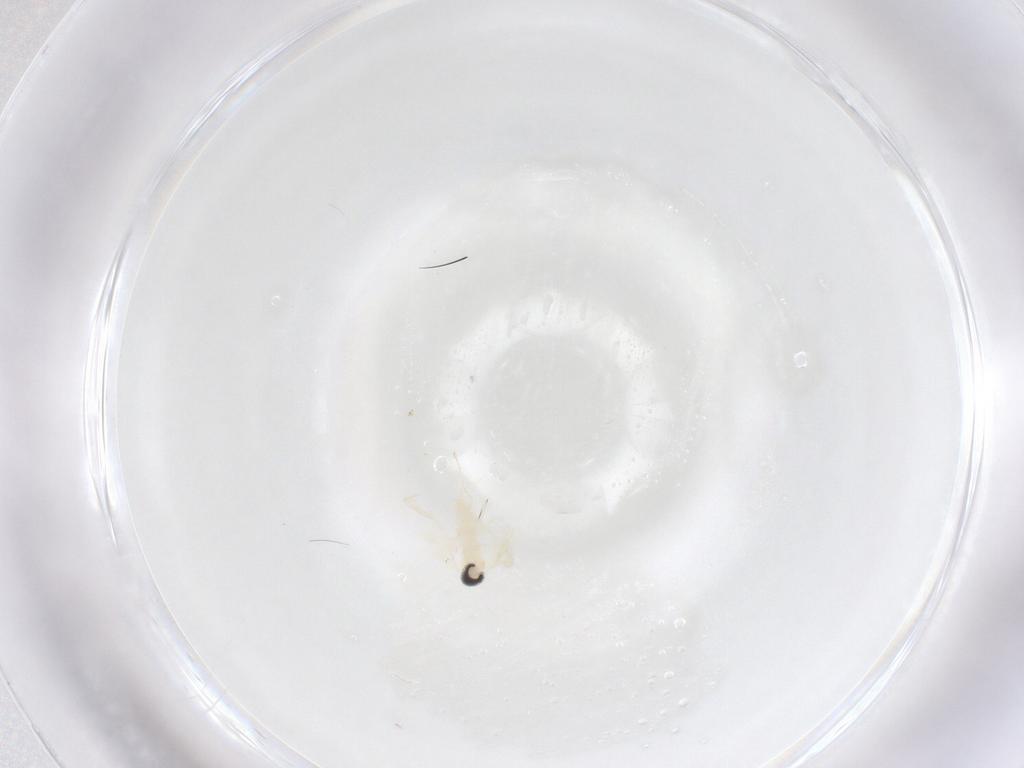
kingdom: Animalia
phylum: Arthropoda
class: Insecta
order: Diptera
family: Cecidomyiidae
